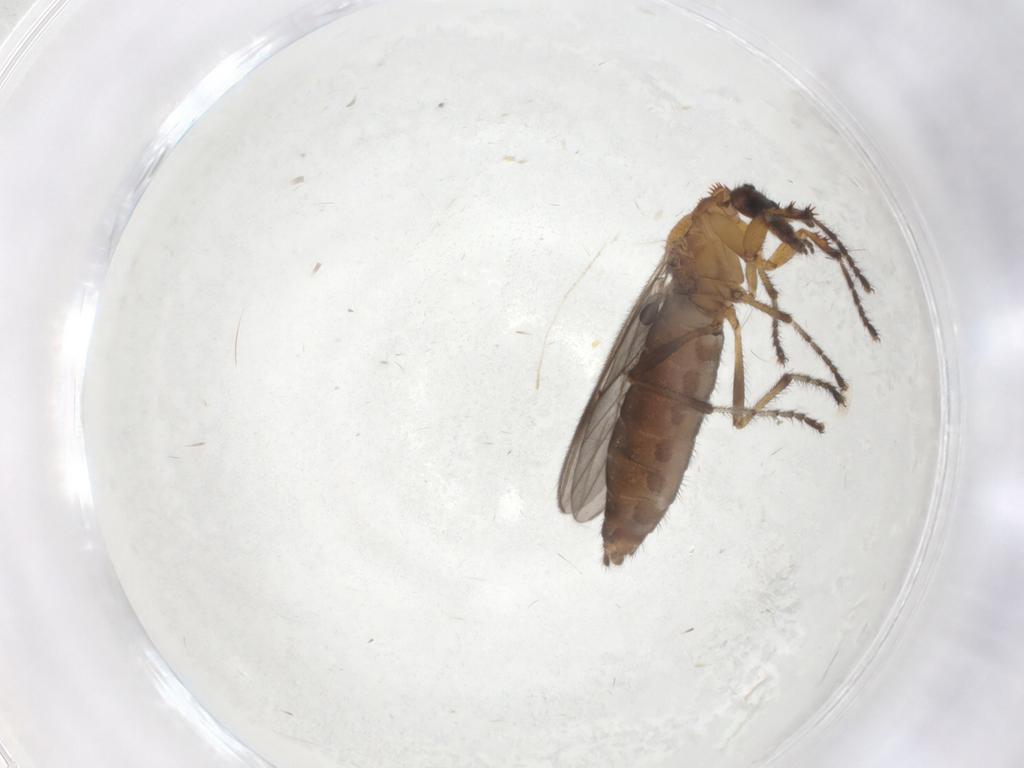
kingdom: Animalia
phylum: Arthropoda
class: Insecta
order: Diptera
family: Bibionidae
